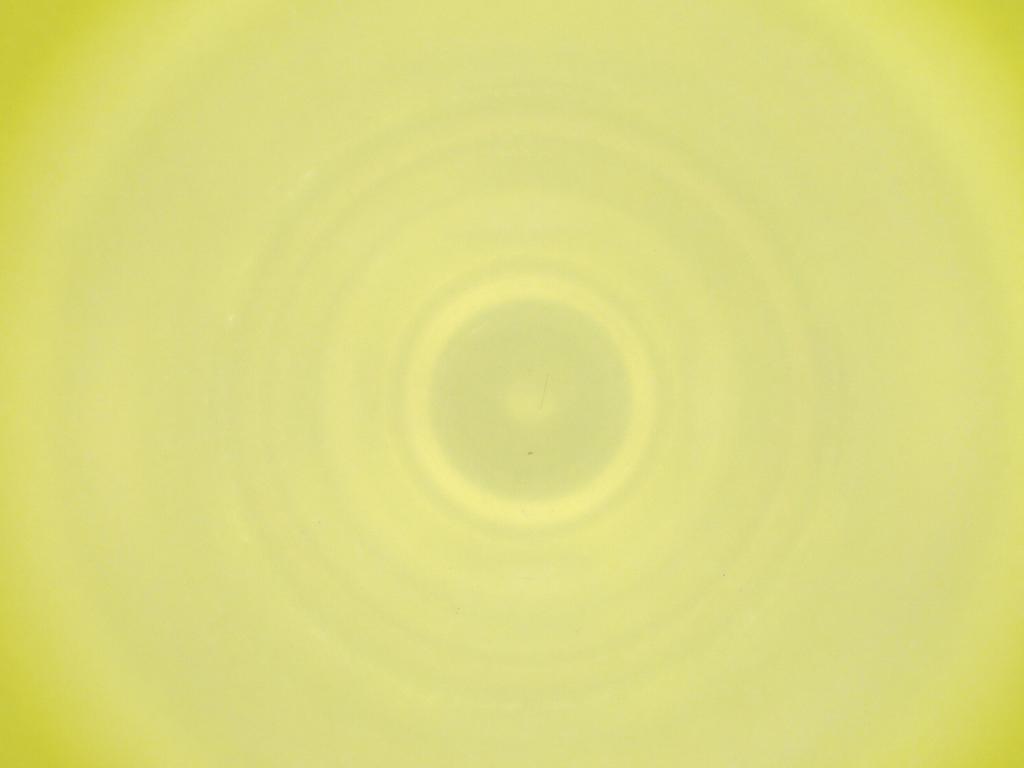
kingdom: Animalia
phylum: Arthropoda
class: Insecta
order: Diptera
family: Cecidomyiidae
